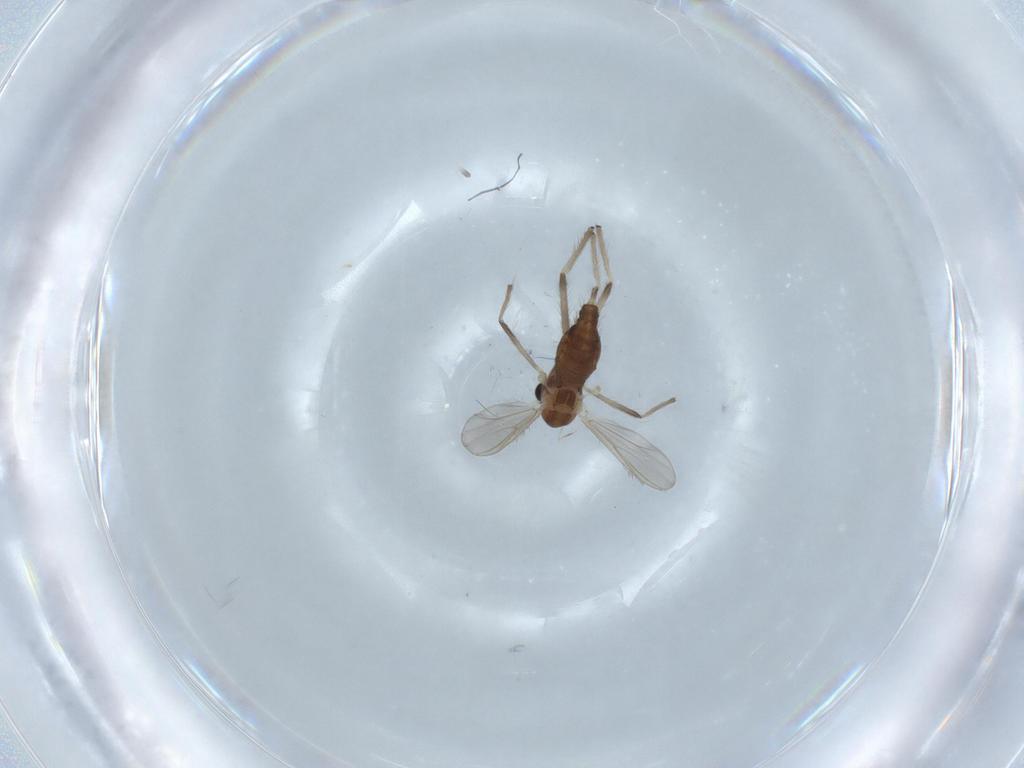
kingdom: Animalia
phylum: Arthropoda
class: Insecta
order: Diptera
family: Chironomidae
